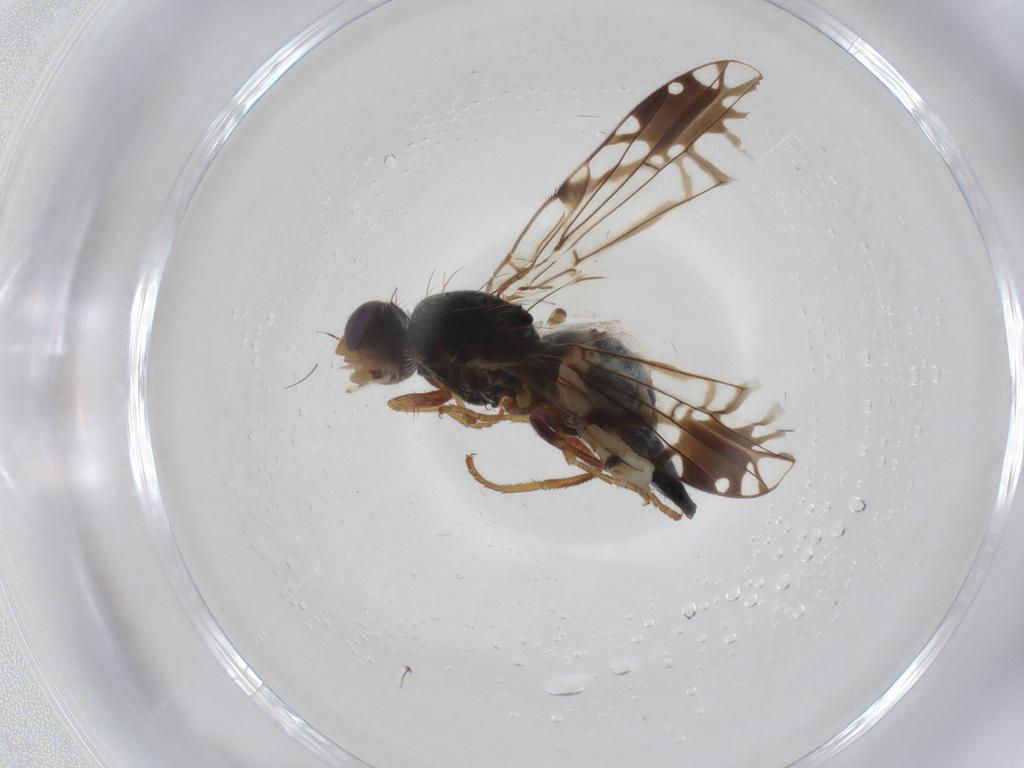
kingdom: Animalia
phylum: Arthropoda
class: Insecta
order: Diptera
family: Tephritidae
